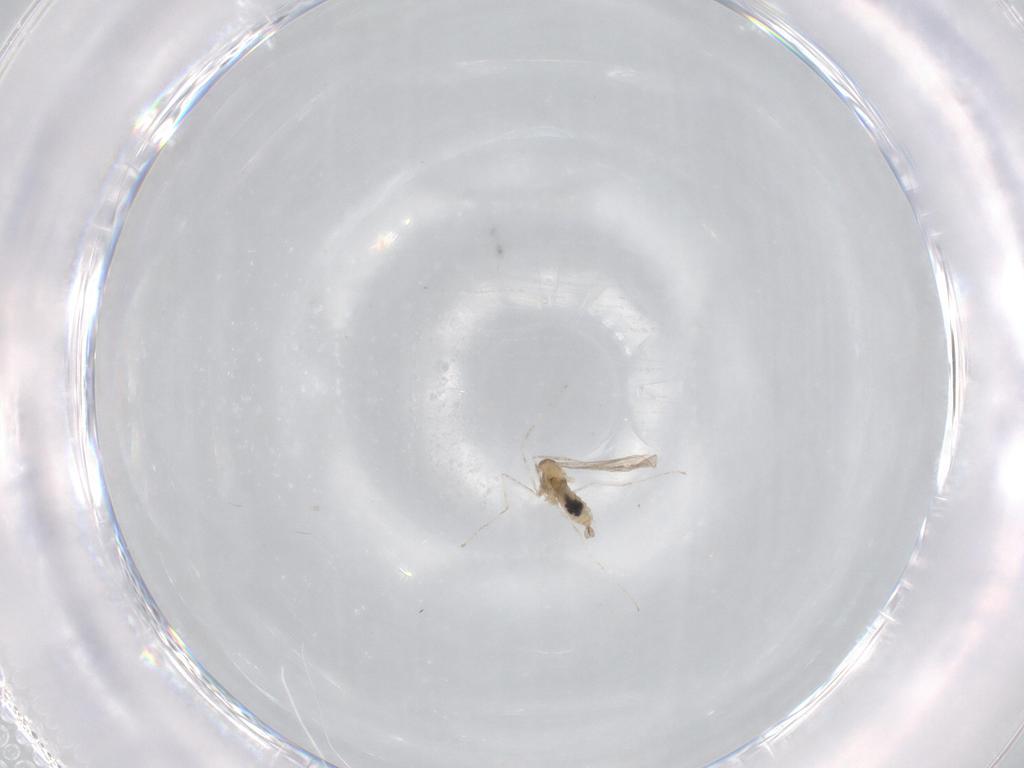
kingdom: Animalia
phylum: Arthropoda
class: Insecta
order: Diptera
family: Cecidomyiidae
